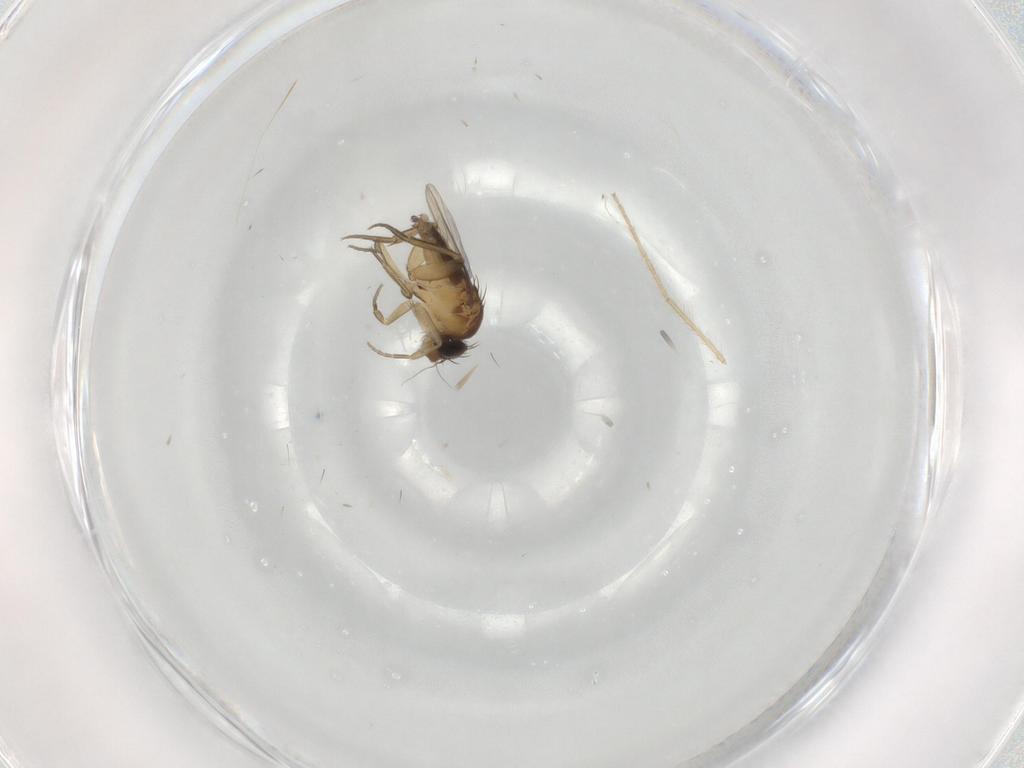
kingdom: Animalia
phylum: Arthropoda
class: Insecta
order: Diptera
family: Phoridae
